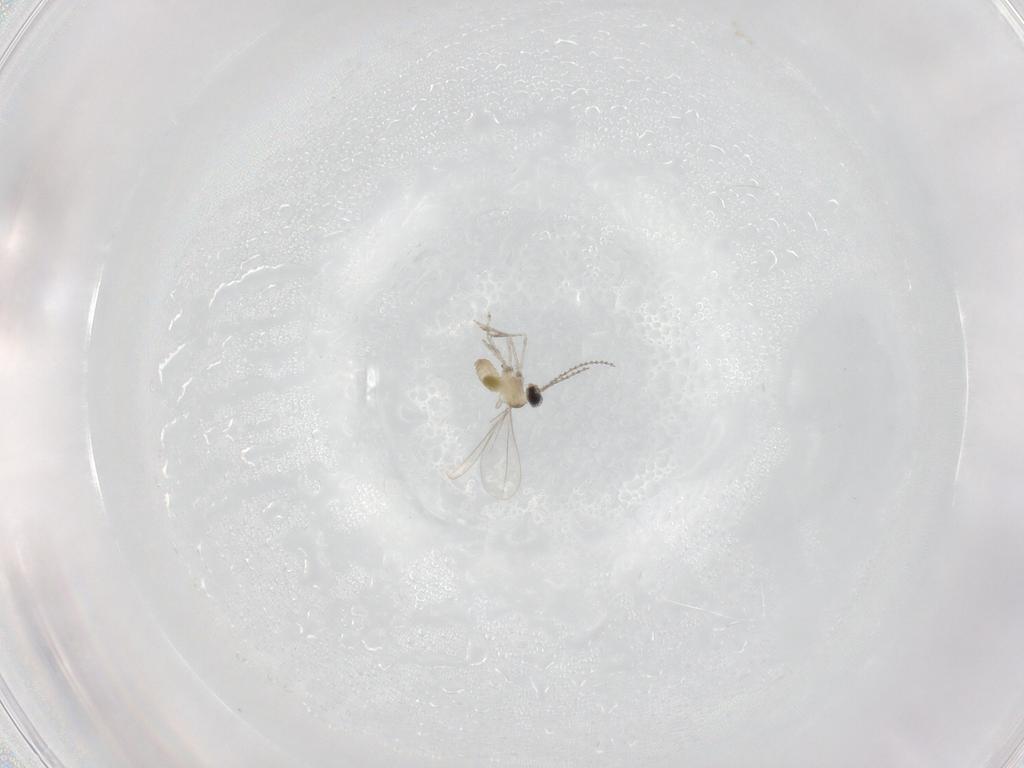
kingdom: Animalia
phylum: Arthropoda
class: Insecta
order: Diptera
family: Cecidomyiidae
